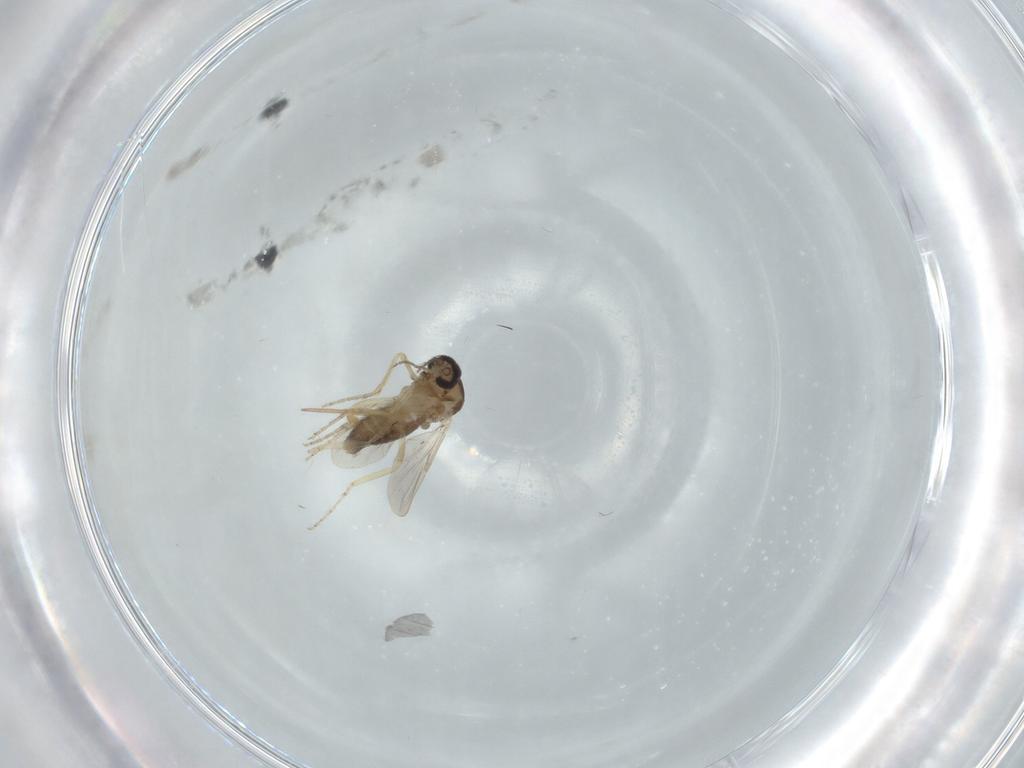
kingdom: Animalia
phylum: Arthropoda
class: Insecta
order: Diptera
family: Ceratopogonidae
